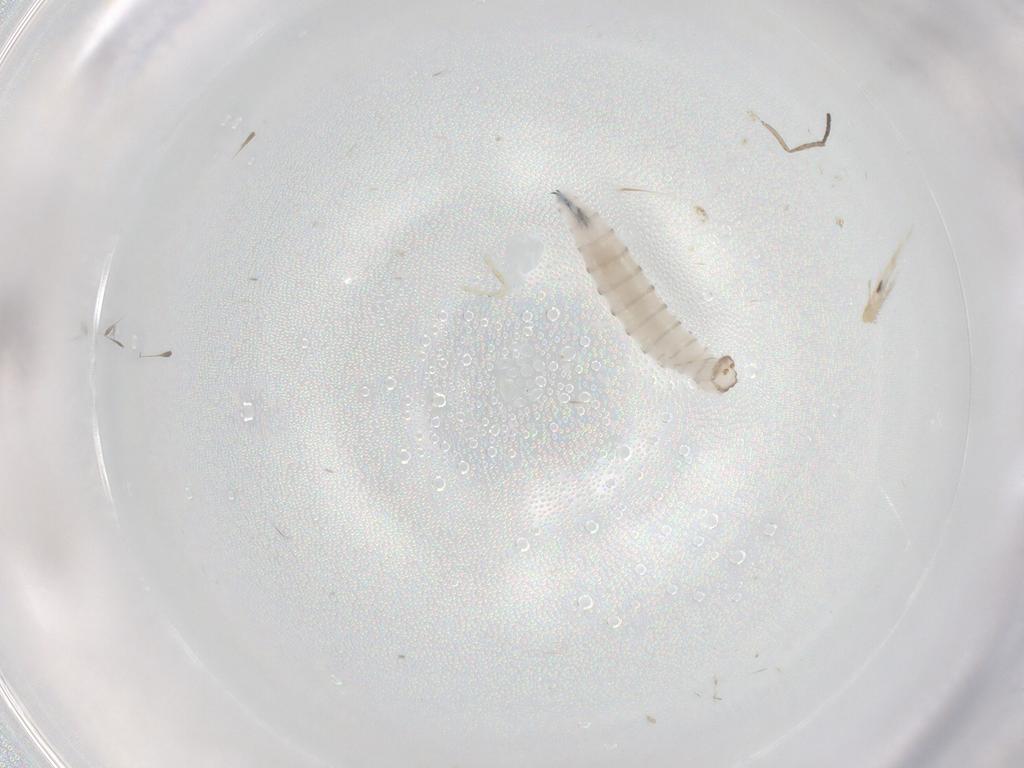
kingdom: Animalia
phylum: Arthropoda
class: Insecta
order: Diptera
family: Sarcophagidae
